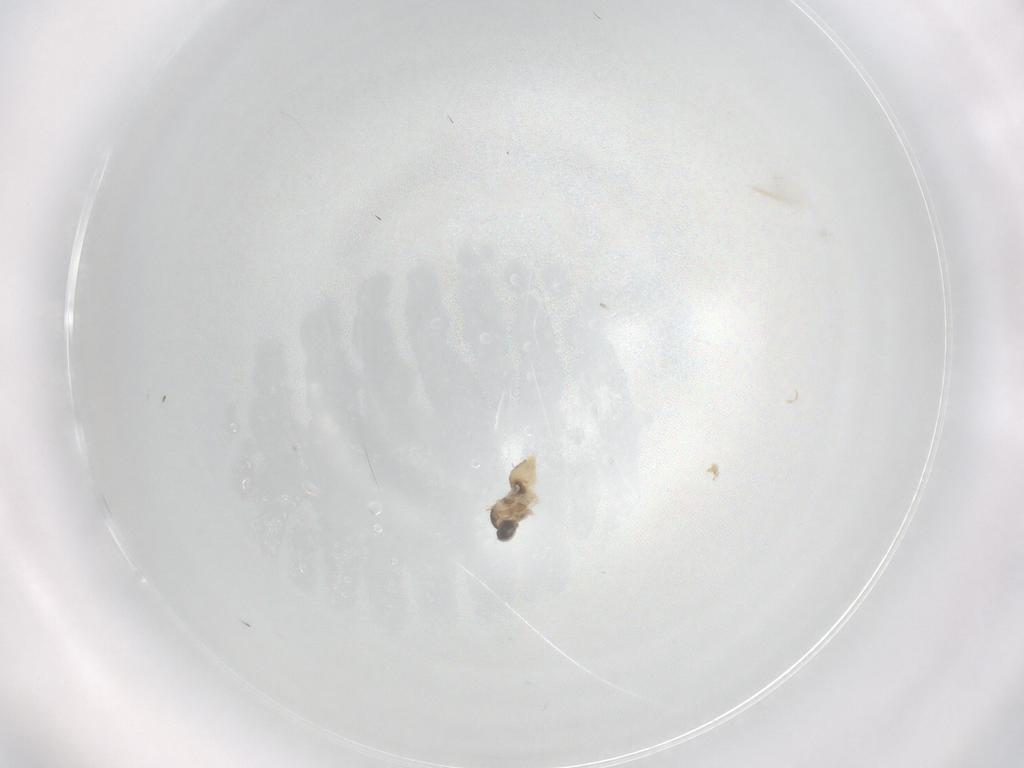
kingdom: Animalia
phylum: Arthropoda
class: Insecta
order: Diptera
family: Cecidomyiidae
